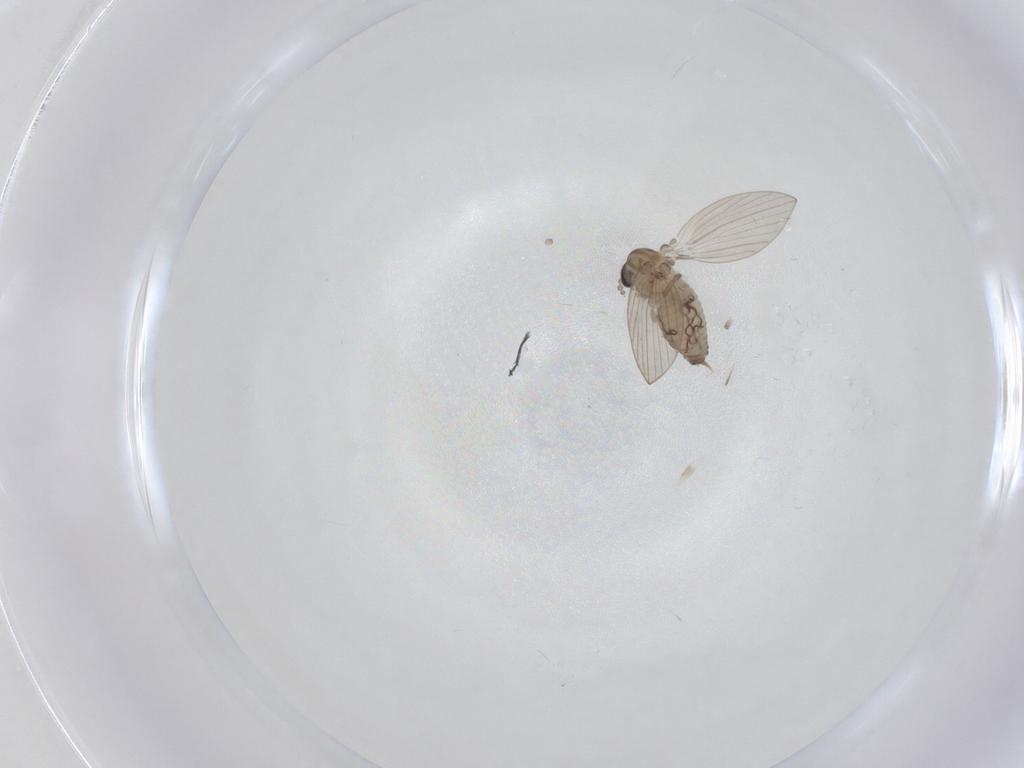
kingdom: Animalia
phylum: Arthropoda
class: Insecta
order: Diptera
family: Psychodidae
